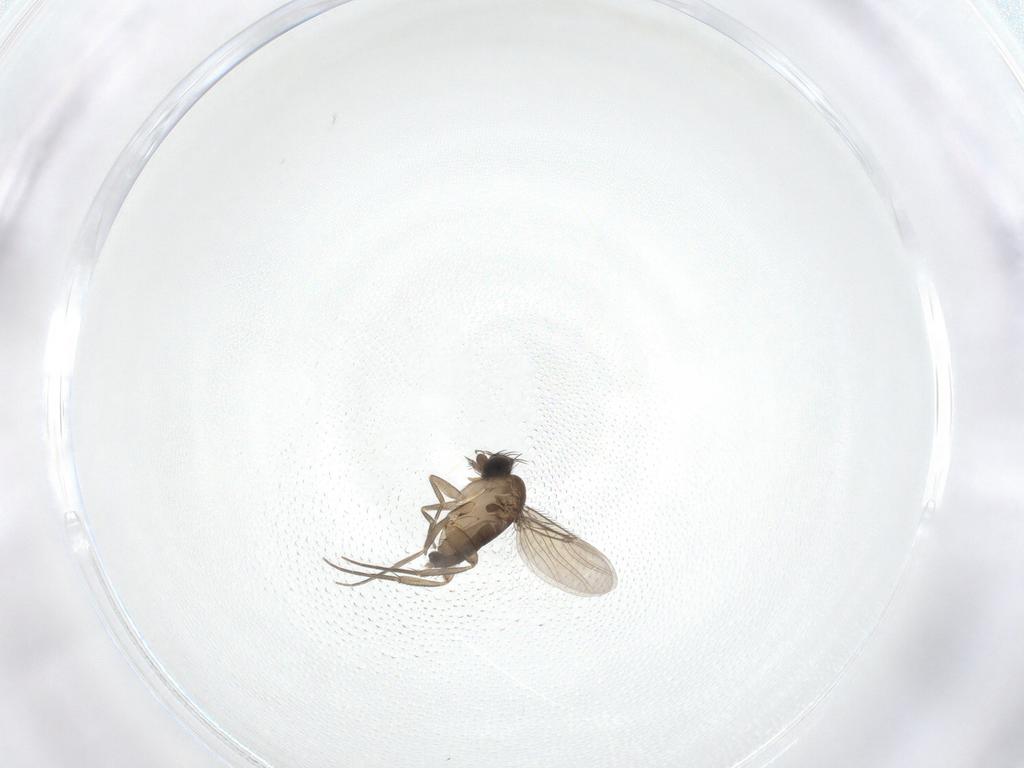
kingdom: Animalia
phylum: Arthropoda
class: Insecta
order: Diptera
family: Phoridae
